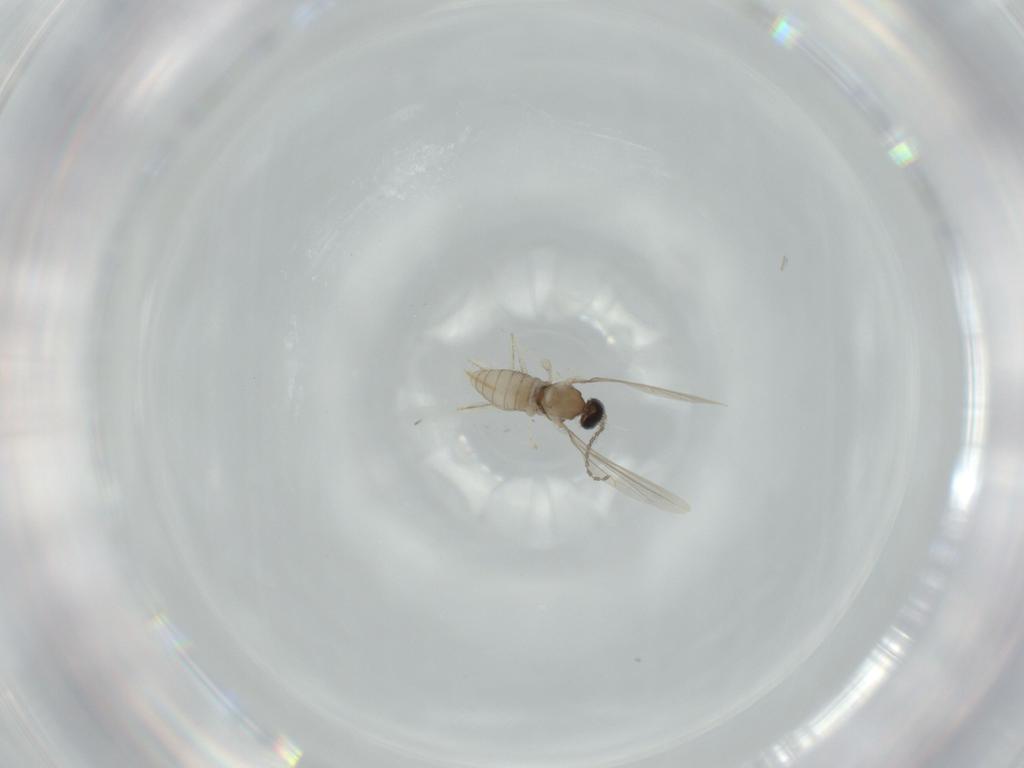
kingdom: Animalia
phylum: Arthropoda
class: Insecta
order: Diptera
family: Cecidomyiidae
